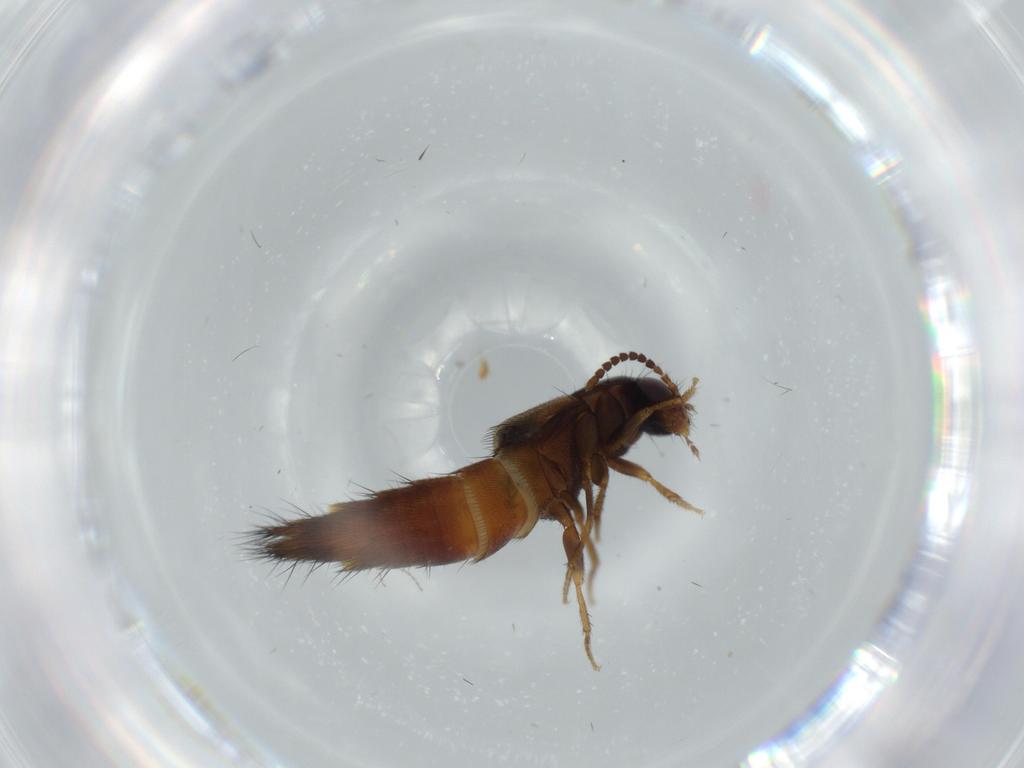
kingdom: Animalia
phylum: Arthropoda
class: Insecta
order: Coleoptera
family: Staphylinidae
